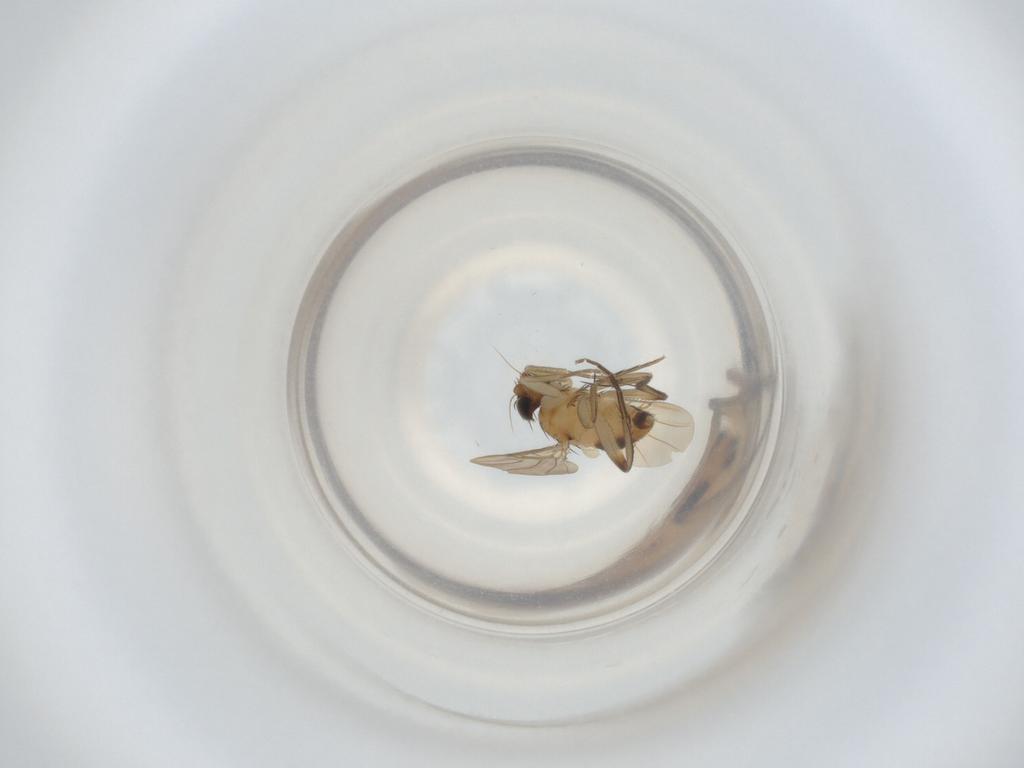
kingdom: Animalia
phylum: Arthropoda
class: Insecta
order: Diptera
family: Phoridae
